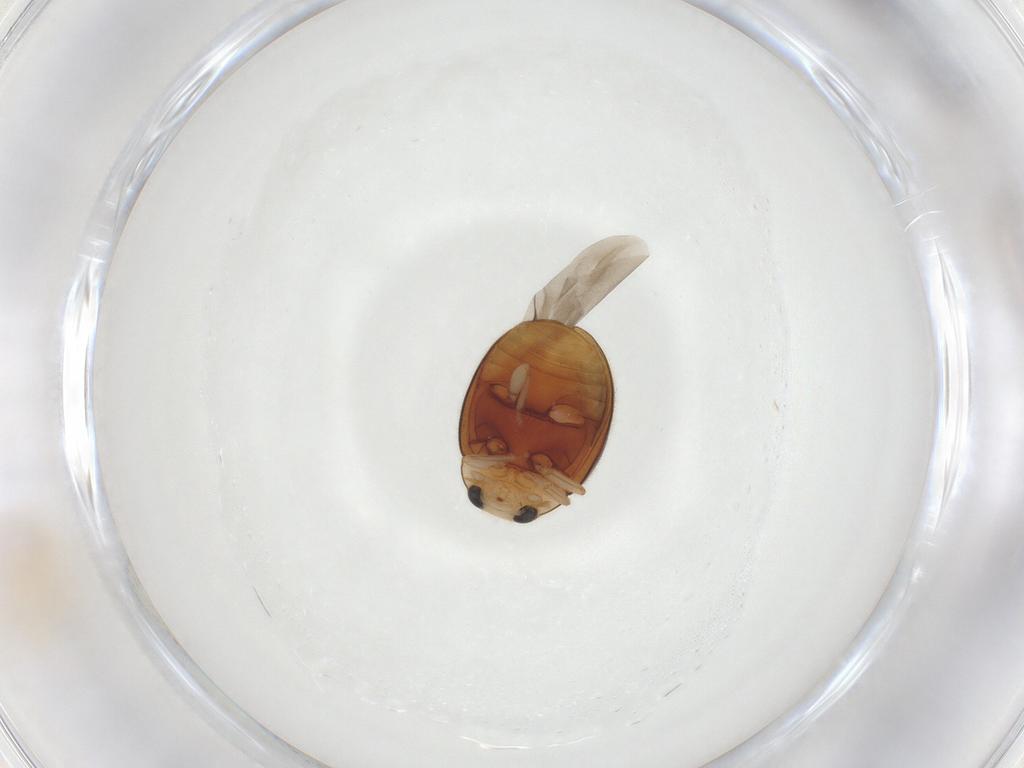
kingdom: Animalia
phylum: Arthropoda
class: Insecta
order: Coleoptera
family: Coccinellidae
